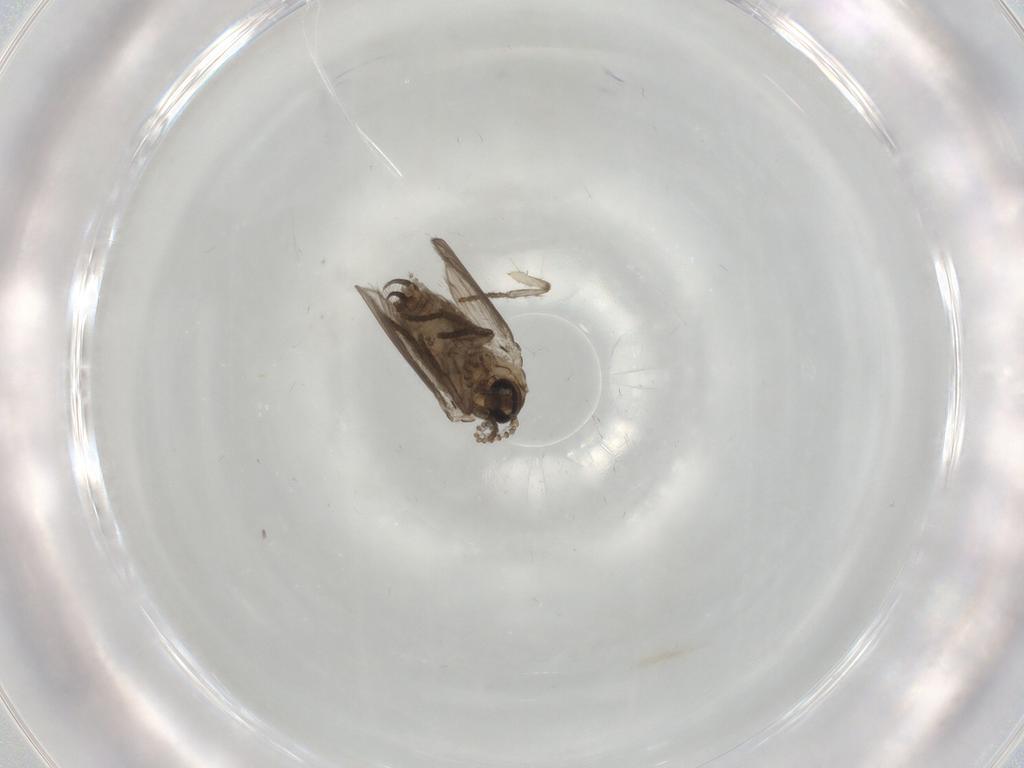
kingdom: Animalia
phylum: Arthropoda
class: Insecta
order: Diptera
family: Psychodidae
